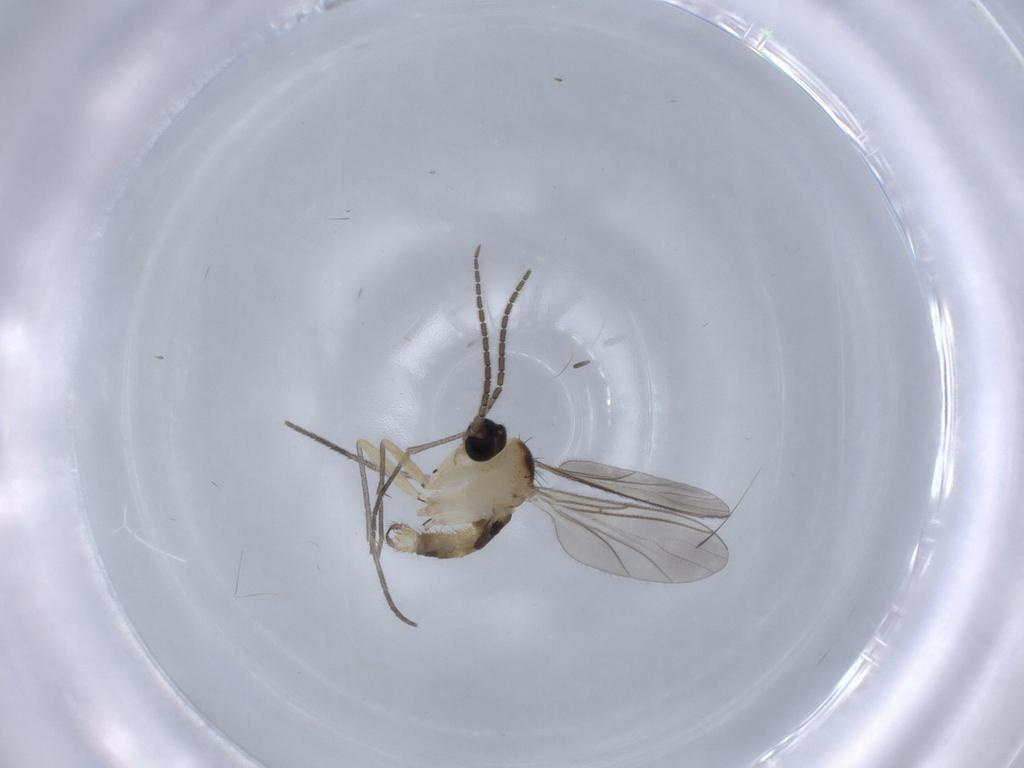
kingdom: Animalia
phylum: Arthropoda
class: Insecta
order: Diptera
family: Sciaridae
